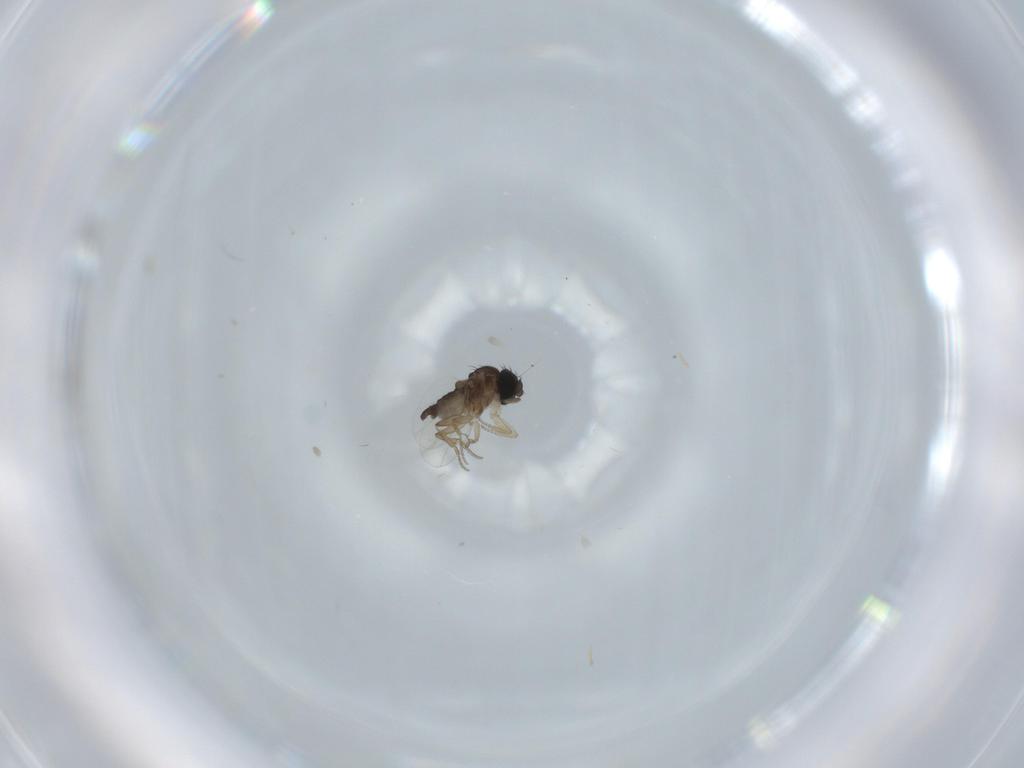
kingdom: Animalia
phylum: Arthropoda
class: Insecta
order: Diptera
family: Phoridae
